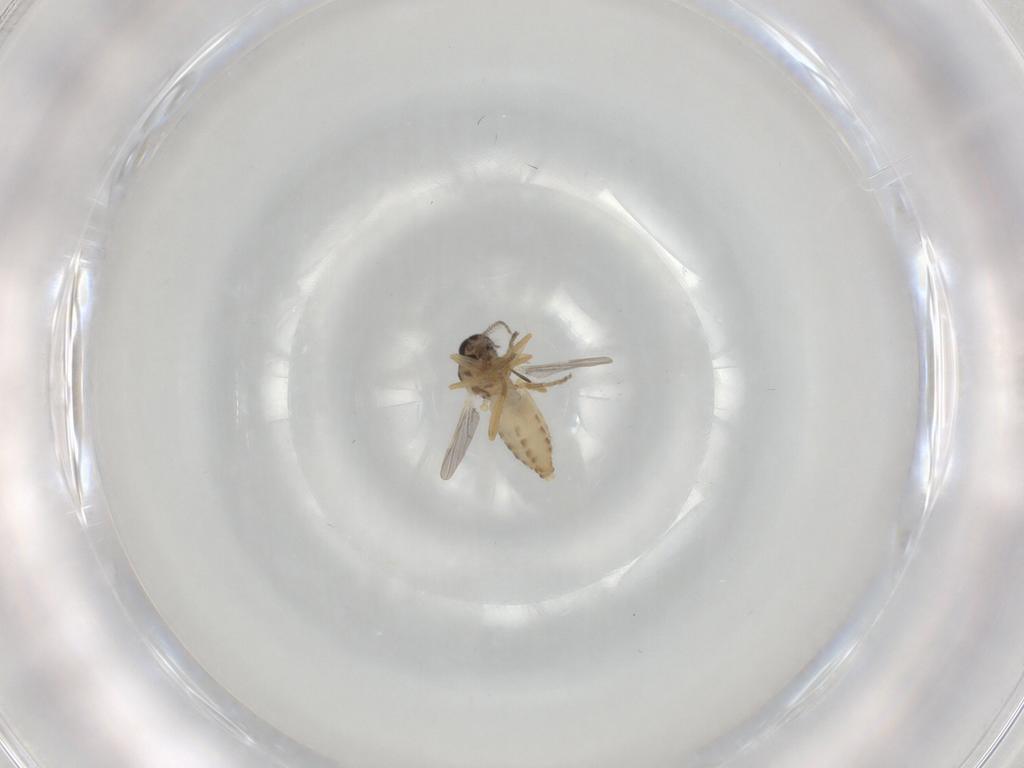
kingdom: Animalia
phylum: Arthropoda
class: Insecta
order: Diptera
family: Ceratopogonidae
